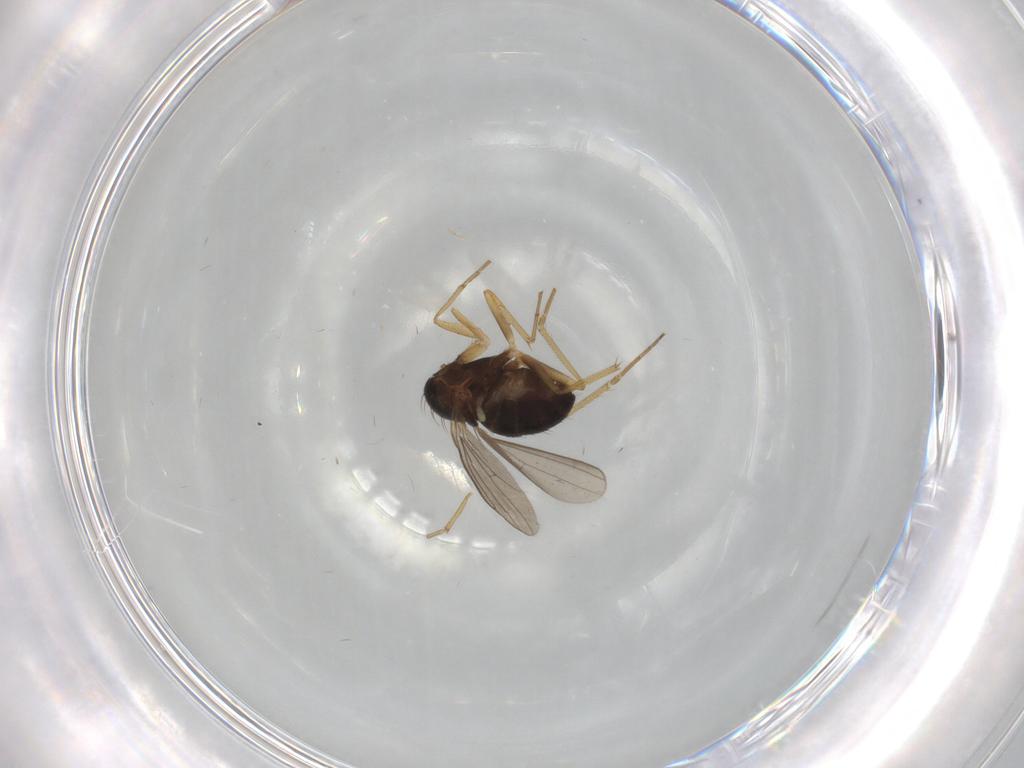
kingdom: Animalia
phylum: Arthropoda
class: Insecta
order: Diptera
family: Dolichopodidae
